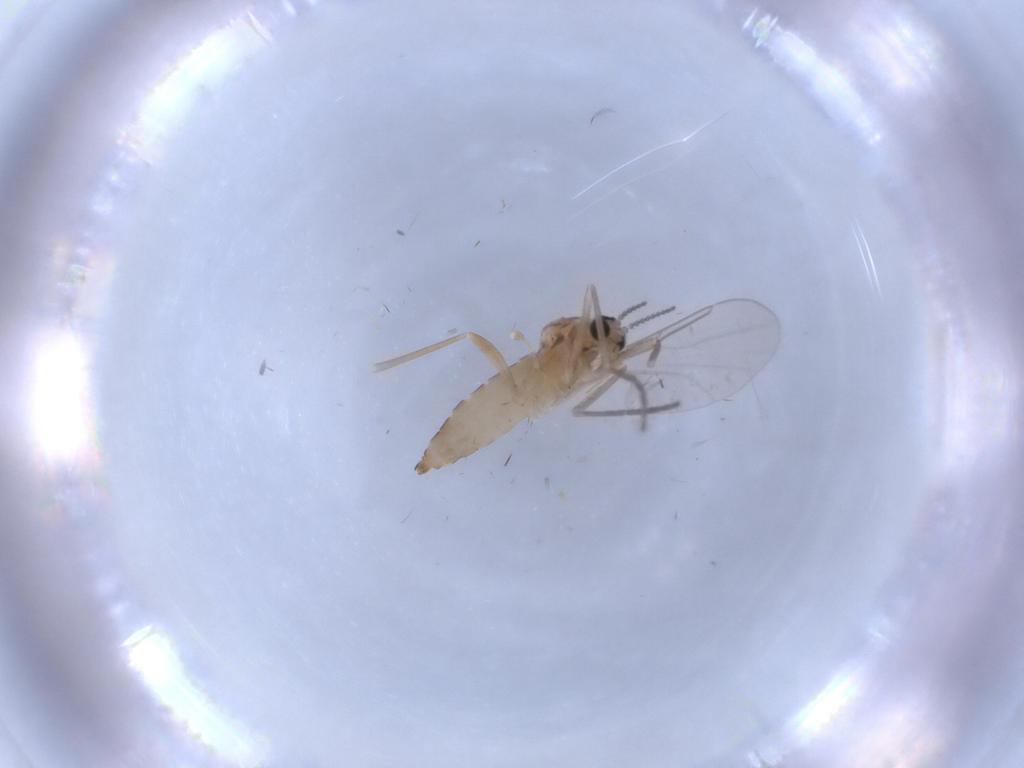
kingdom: Animalia
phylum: Arthropoda
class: Insecta
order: Diptera
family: Cecidomyiidae
